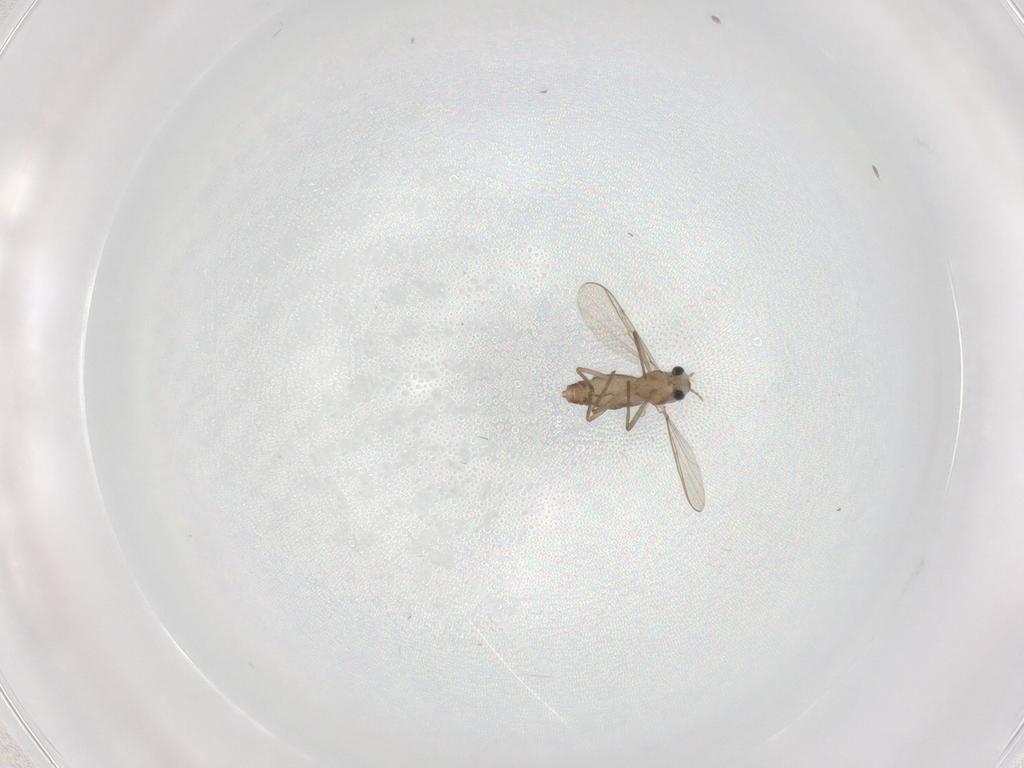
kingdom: Animalia
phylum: Arthropoda
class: Insecta
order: Diptera
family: Chironomidae
